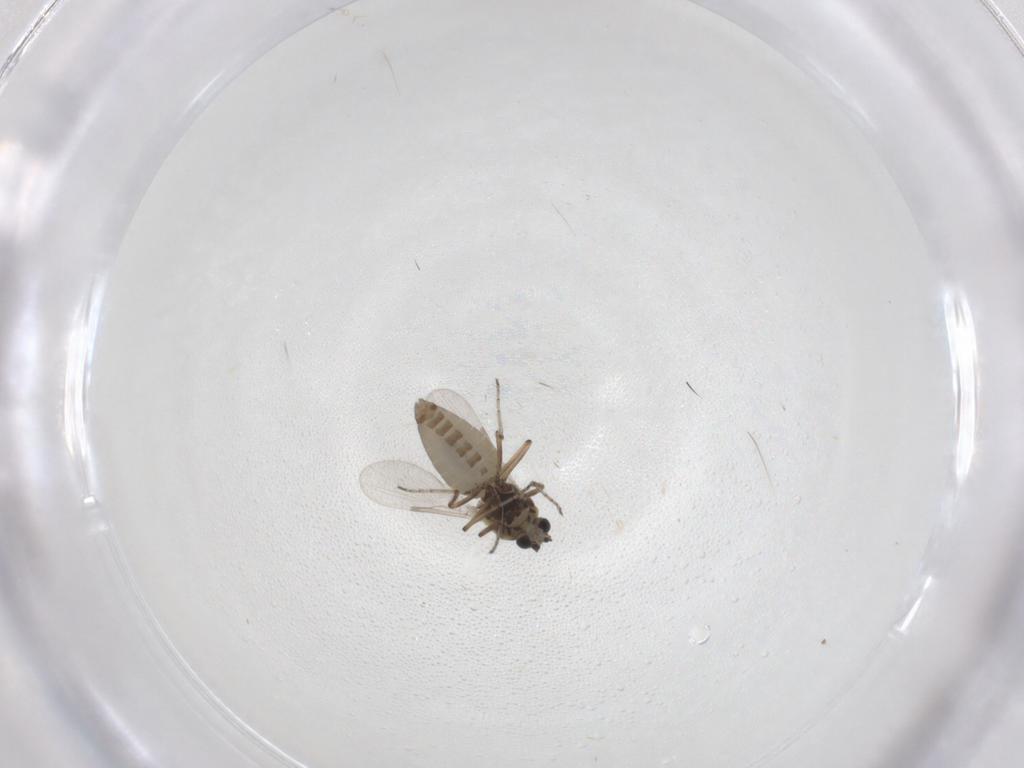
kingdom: Animalia
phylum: Arthropoda
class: Insecta
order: Diptera
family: Ceratopogonidae
